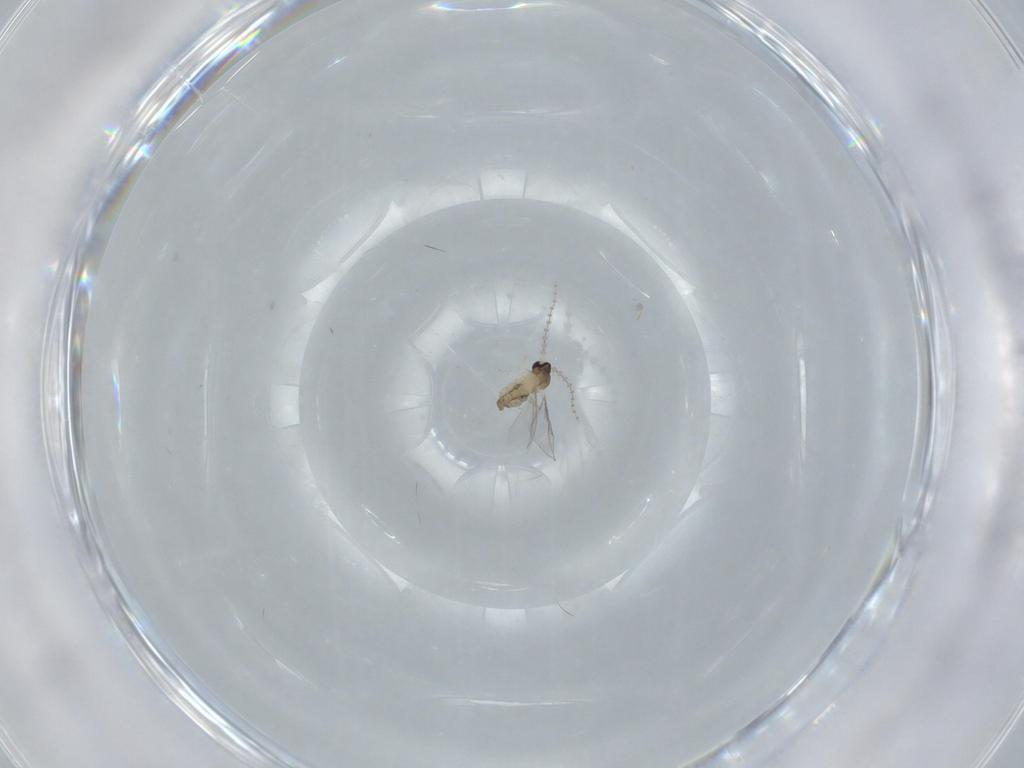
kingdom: Animalia
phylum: Arthropoda
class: Insecta
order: Diptera
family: Cecidomyiidae
